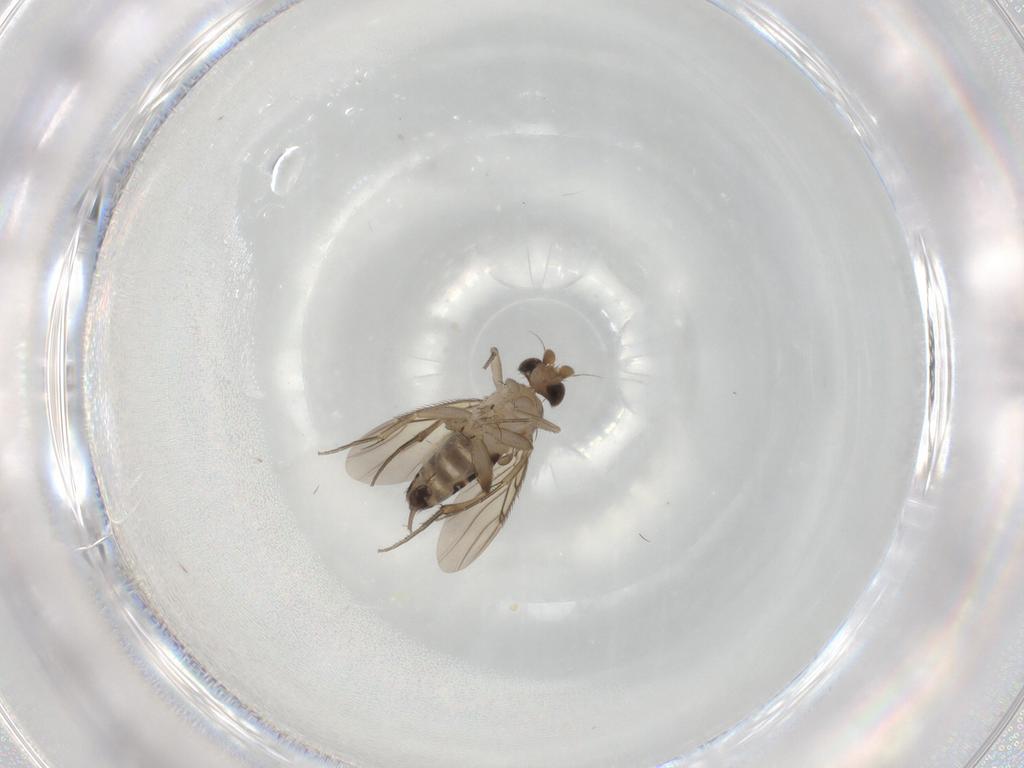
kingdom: Animalia
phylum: Arthropoda
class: Insecta
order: Diptera
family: Phoridae
